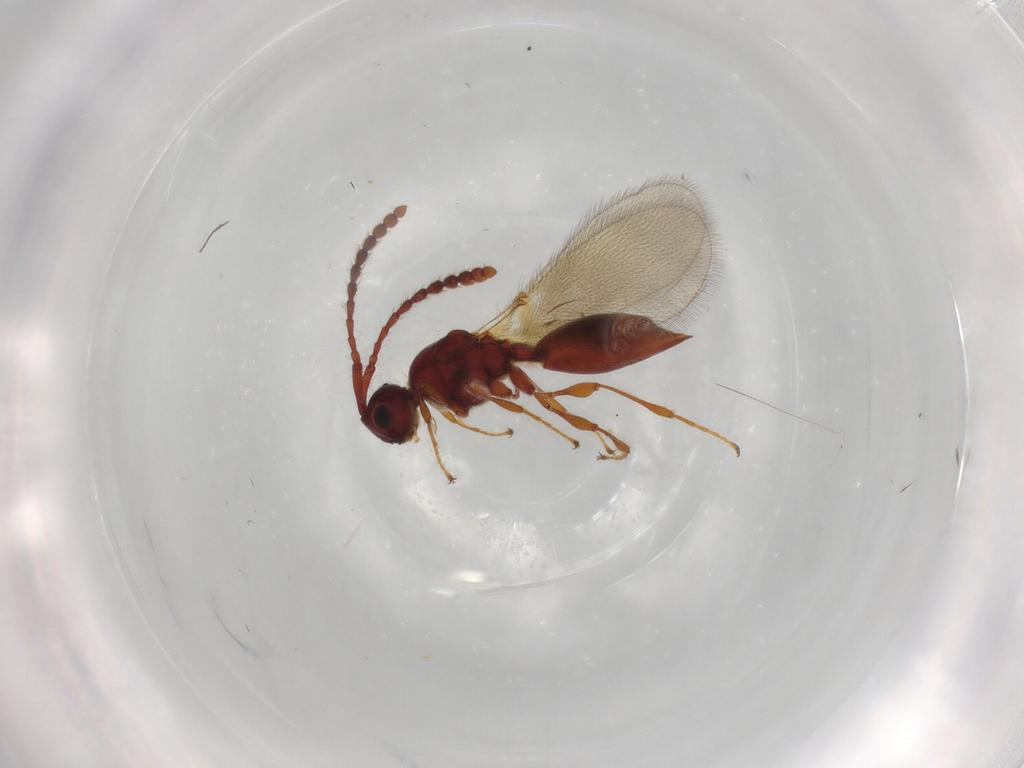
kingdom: Animalia
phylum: Arthropoda
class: Insecta
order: Hymenoptera
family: Diapriidae
